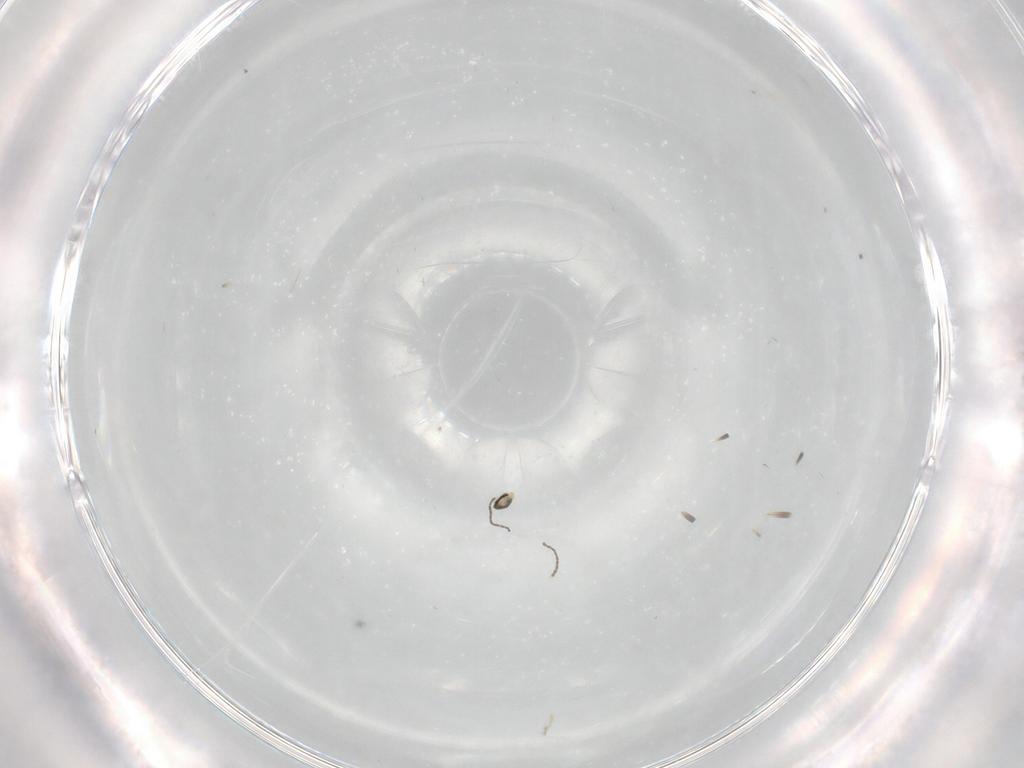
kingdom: Animalia
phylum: Arthropoda
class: Insecta
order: Diptera
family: Cecidomyiidae
